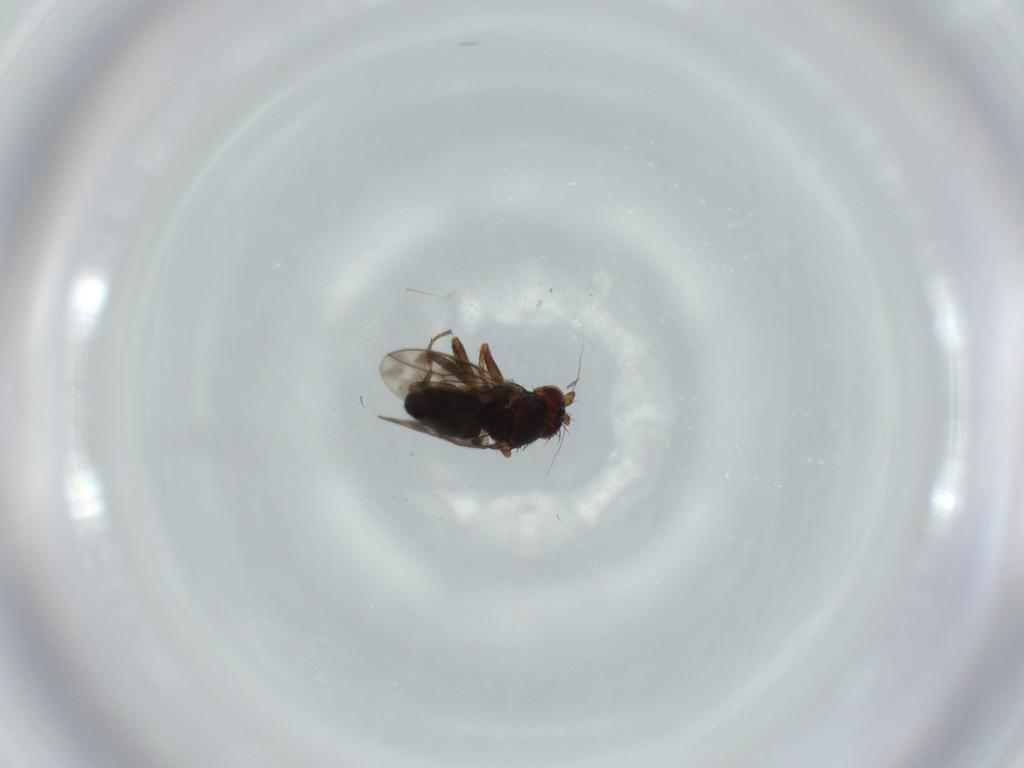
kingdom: Animalia
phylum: Arthropoda
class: Insecta
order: Diptera
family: Sphaeroceridae
